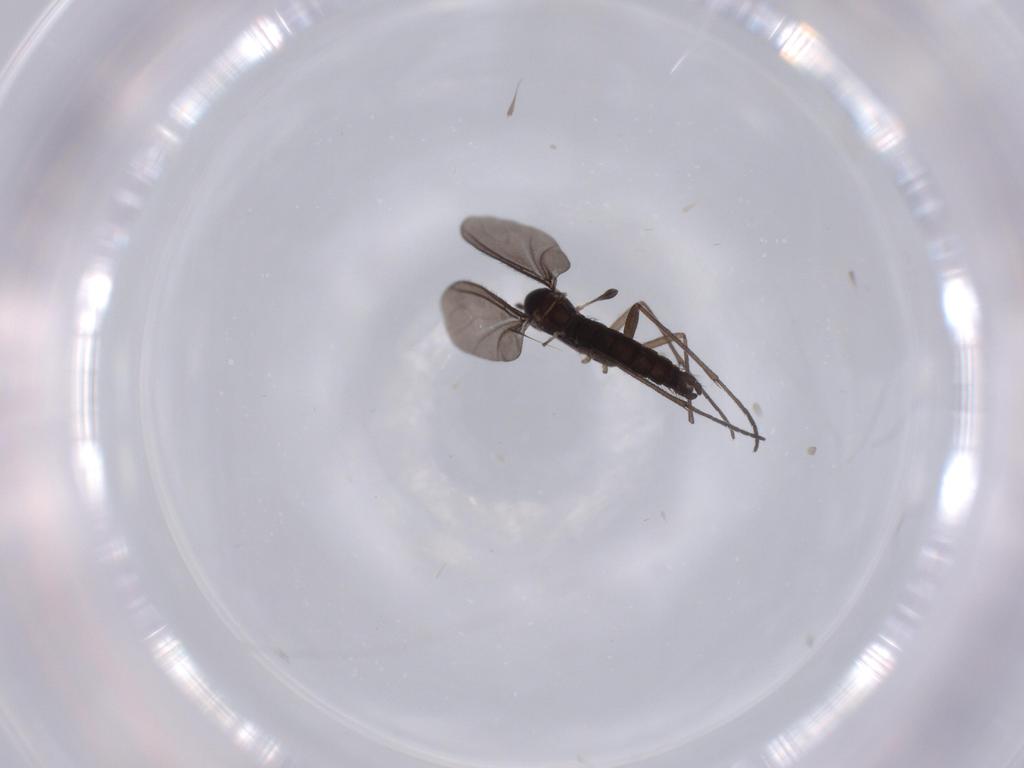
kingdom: Animalia
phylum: Arthropoda
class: Insecta
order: Diptera
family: Sciaridae
